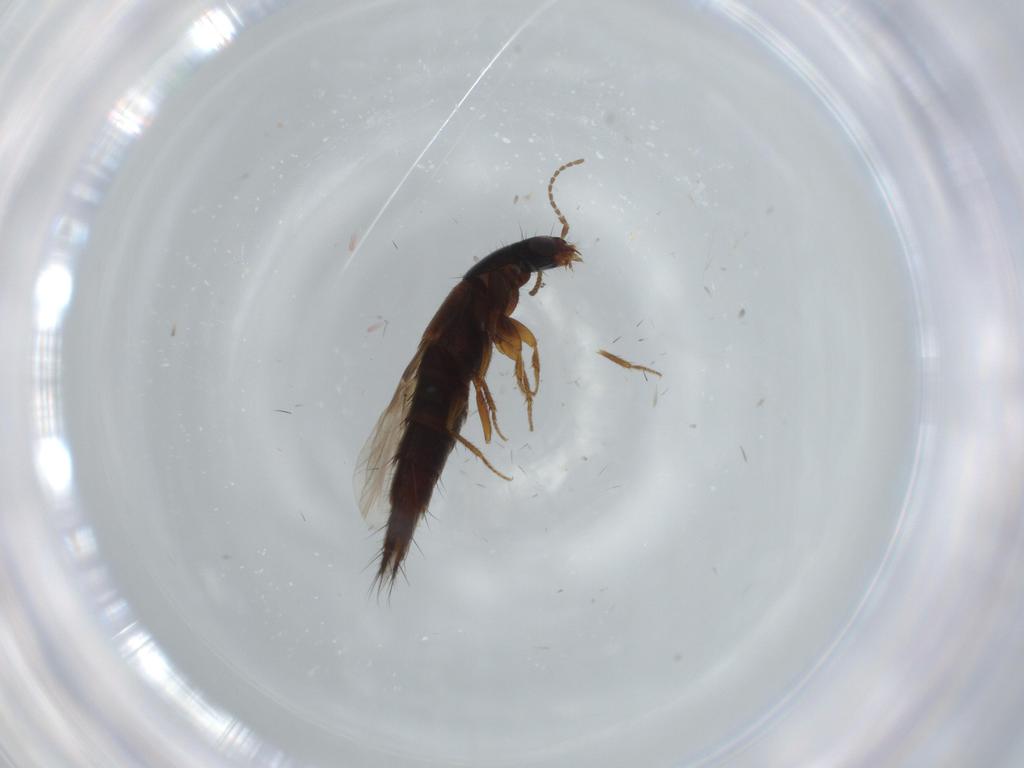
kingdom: Animalia
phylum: Arthropoda
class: Insecta
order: Coleoptera
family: Staphylinidae
